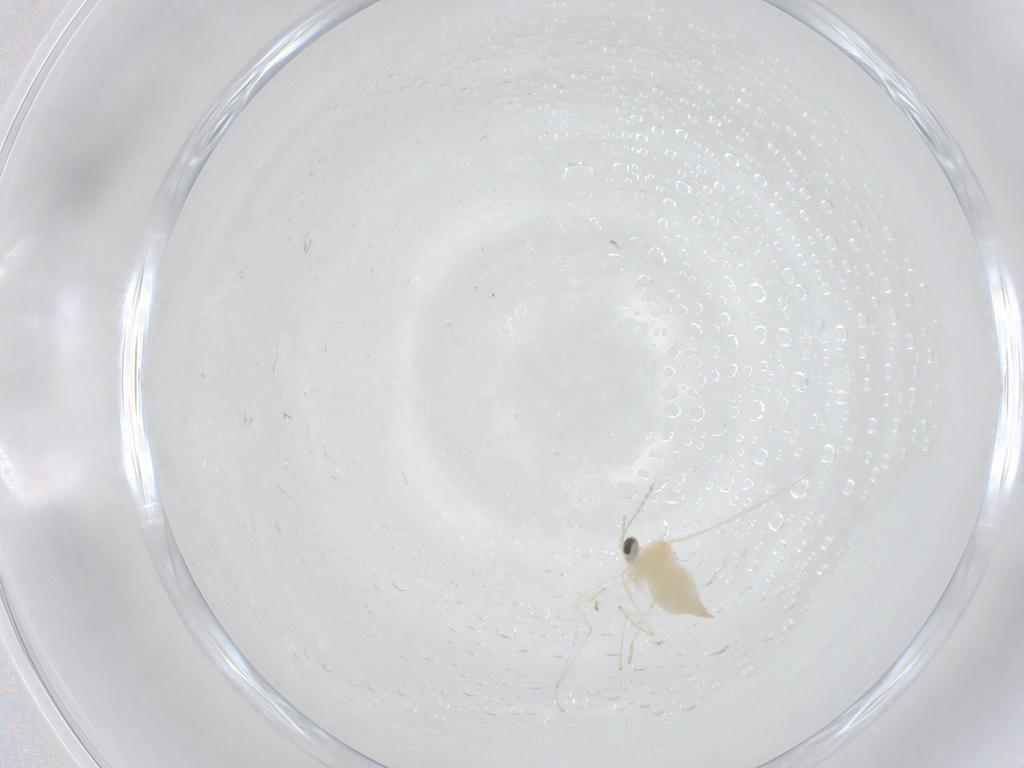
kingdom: Animalia
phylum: Arthropoda
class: Insecta
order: Diptera
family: Cecidomyiidae
